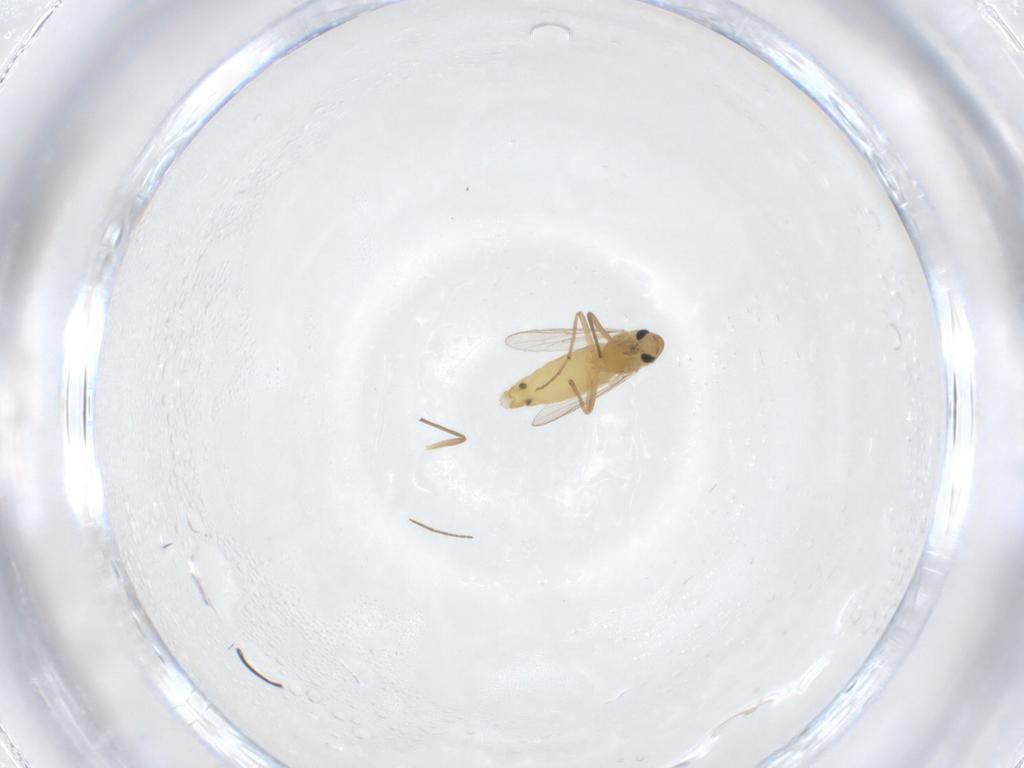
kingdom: Animalia
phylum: Arthropoda
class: Insecta
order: Diptera
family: Chironomidae
